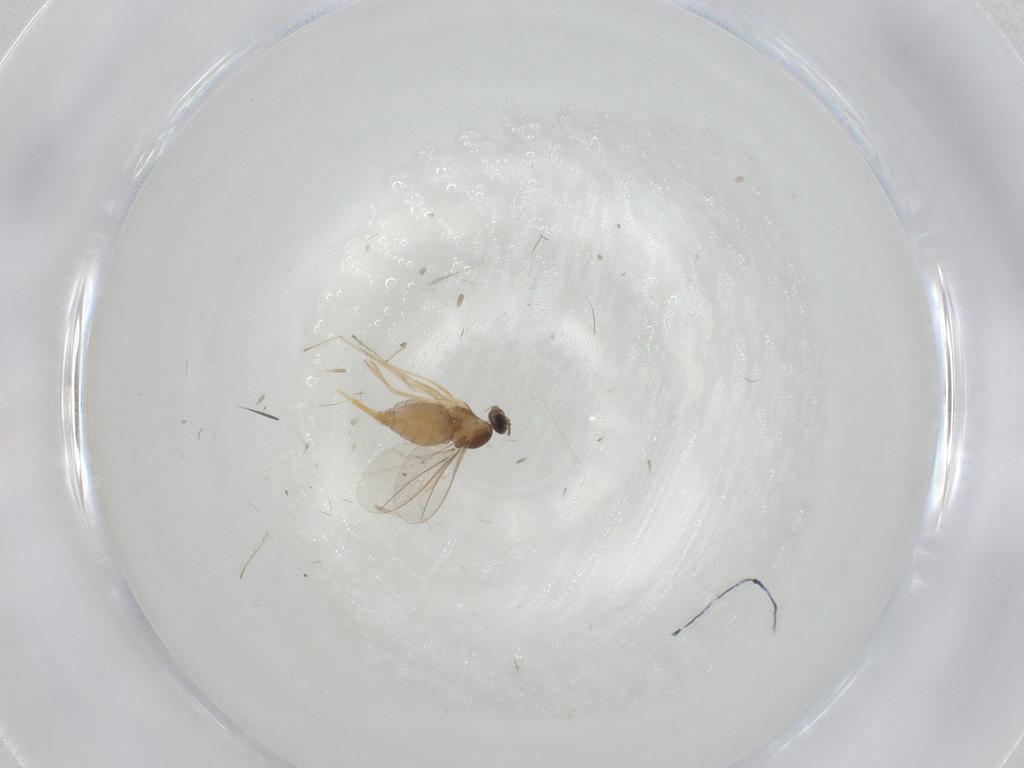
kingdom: Animalia
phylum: Arthropoda
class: Insecta
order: Diptera
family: Cecidomyiidae
